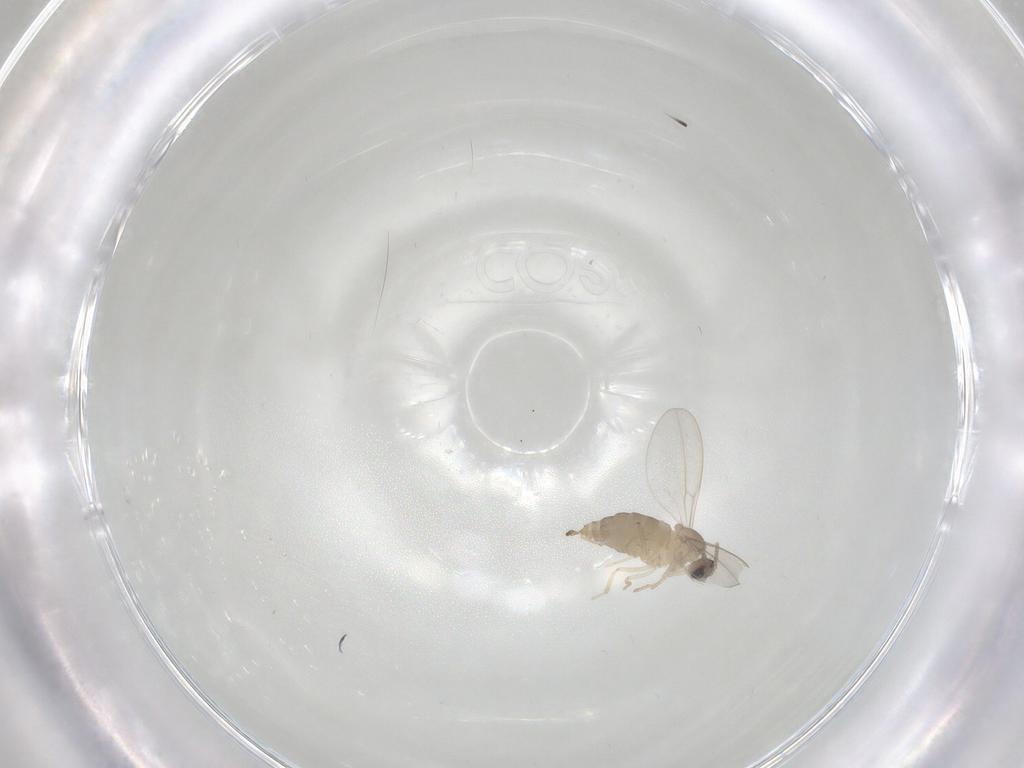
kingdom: Animalia
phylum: Arthropoda
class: Insecta
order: Diptera
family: Cecidomyiidae
